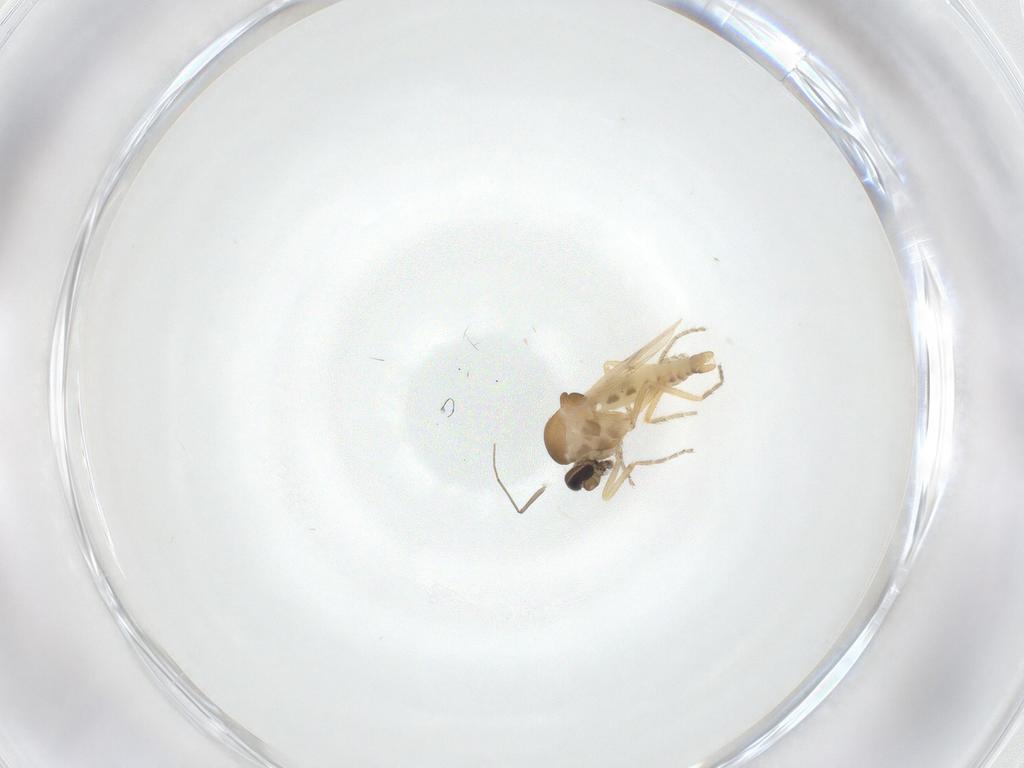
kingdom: Animalia
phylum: Arthropoda
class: Insecta
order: Diptera
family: Ceratopogonidae
